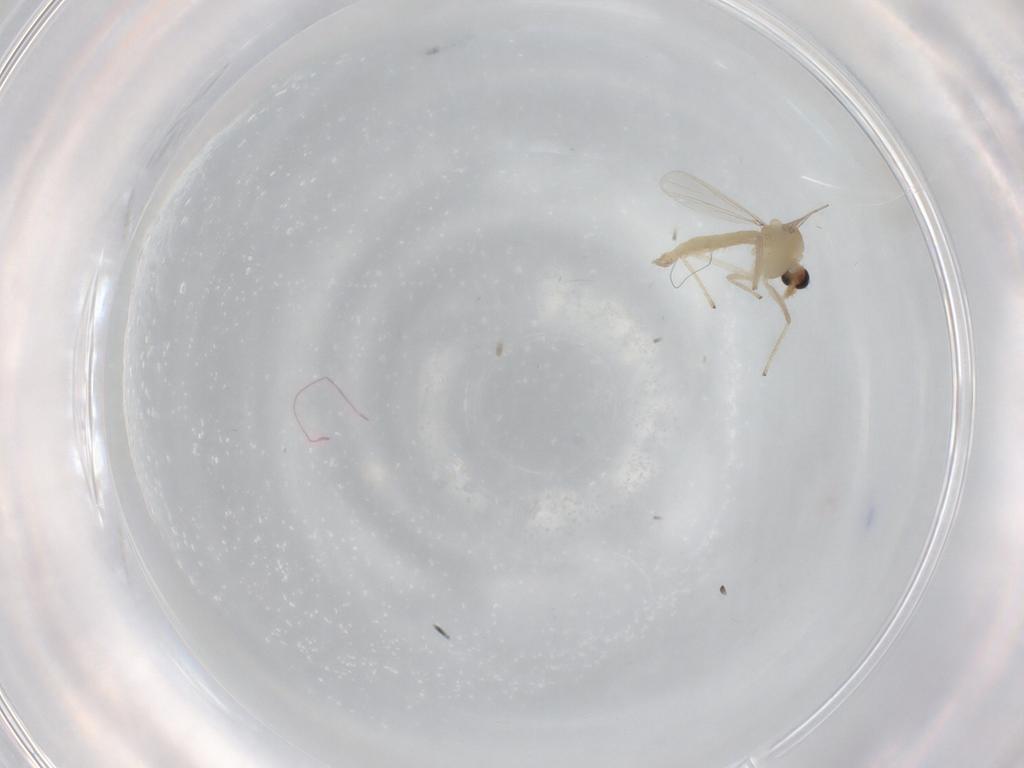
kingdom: Animalia
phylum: Arthropoda
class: Insecta
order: Diptera
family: Chironomidae
